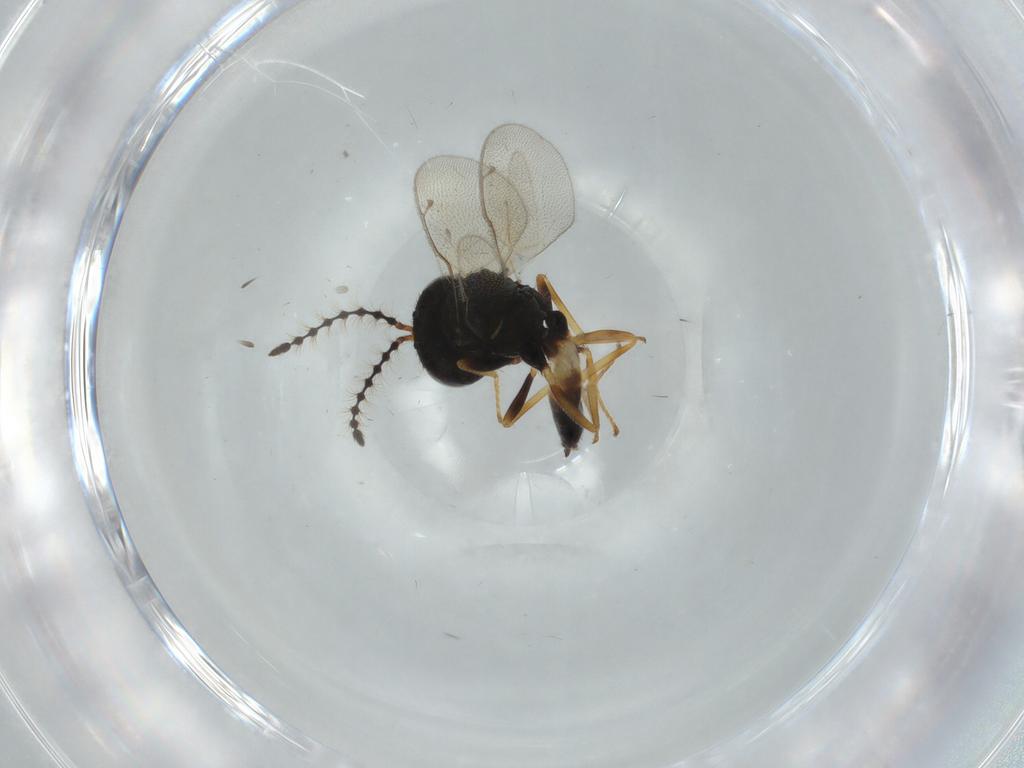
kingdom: Animalia
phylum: Arthropoda
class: Insecta
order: Hymenoptera
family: Pteromalidae
